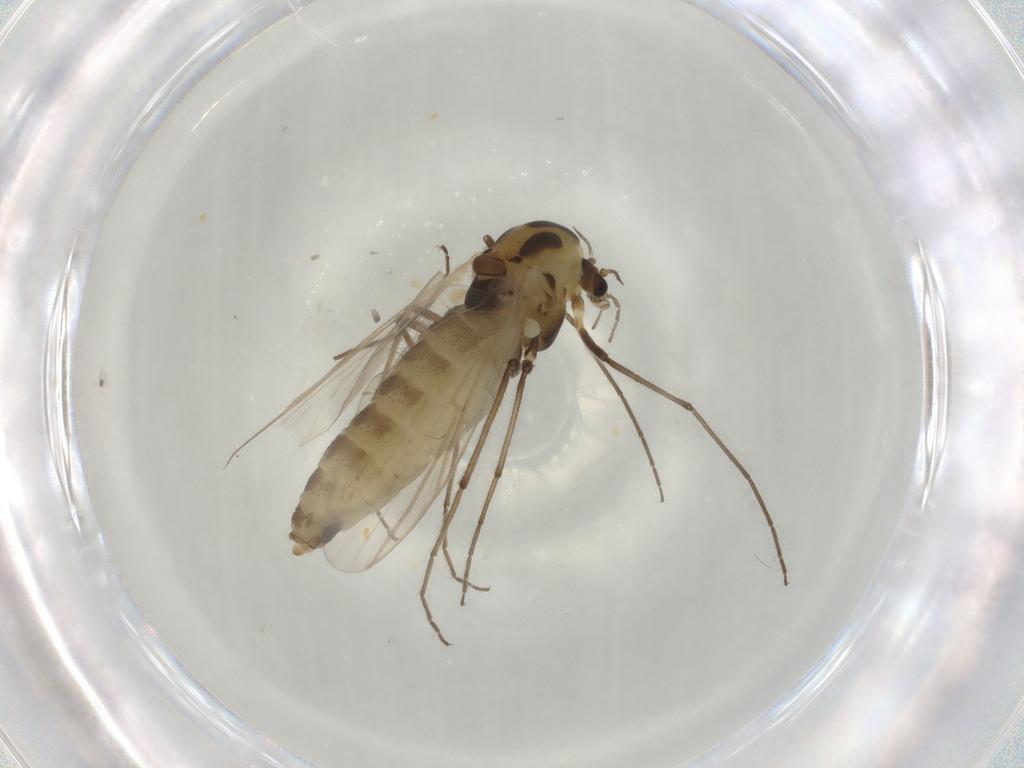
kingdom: Animalia
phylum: Arthropoda
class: Insecta
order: Diptera
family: Chironomidae
